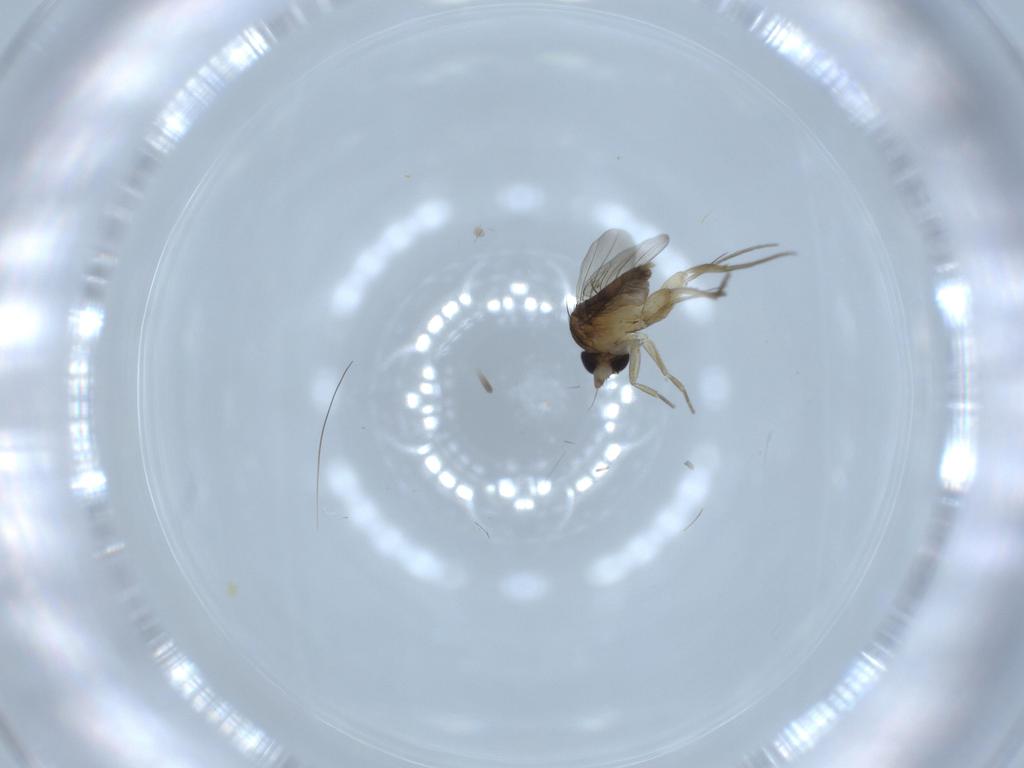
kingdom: Animalia
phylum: Arthropoda
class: Insecta
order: Diptera
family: Phoridae
